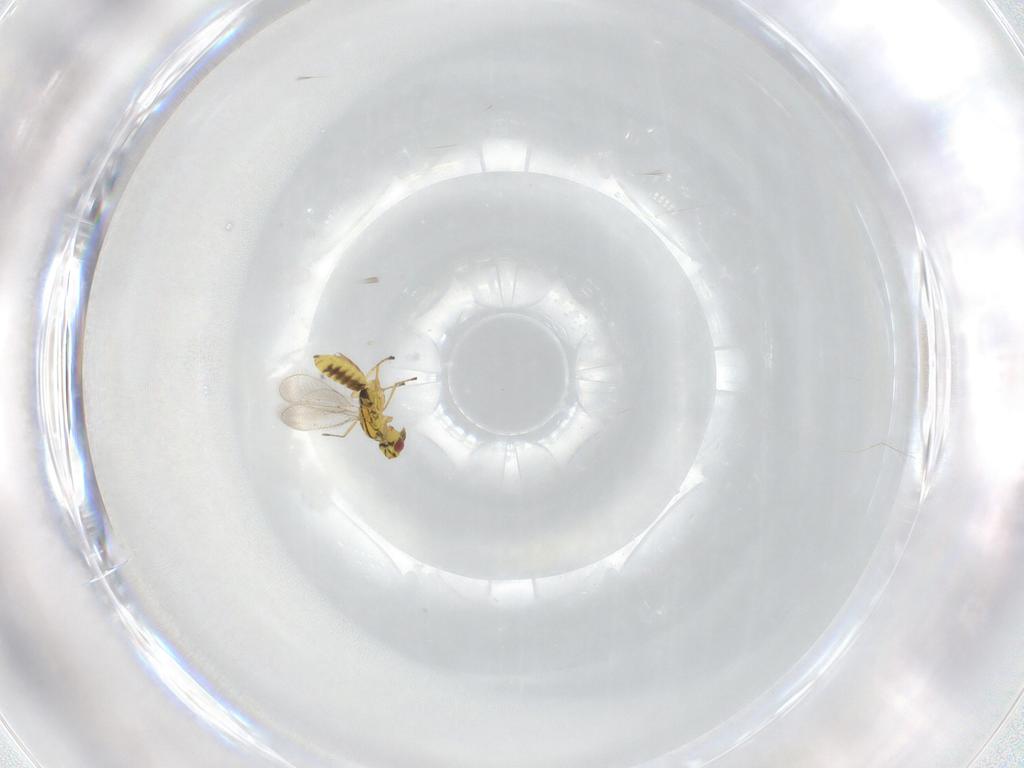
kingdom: Animalia
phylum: Arthropoda
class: Insecta
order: Hymenoptera
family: Eulophidae
